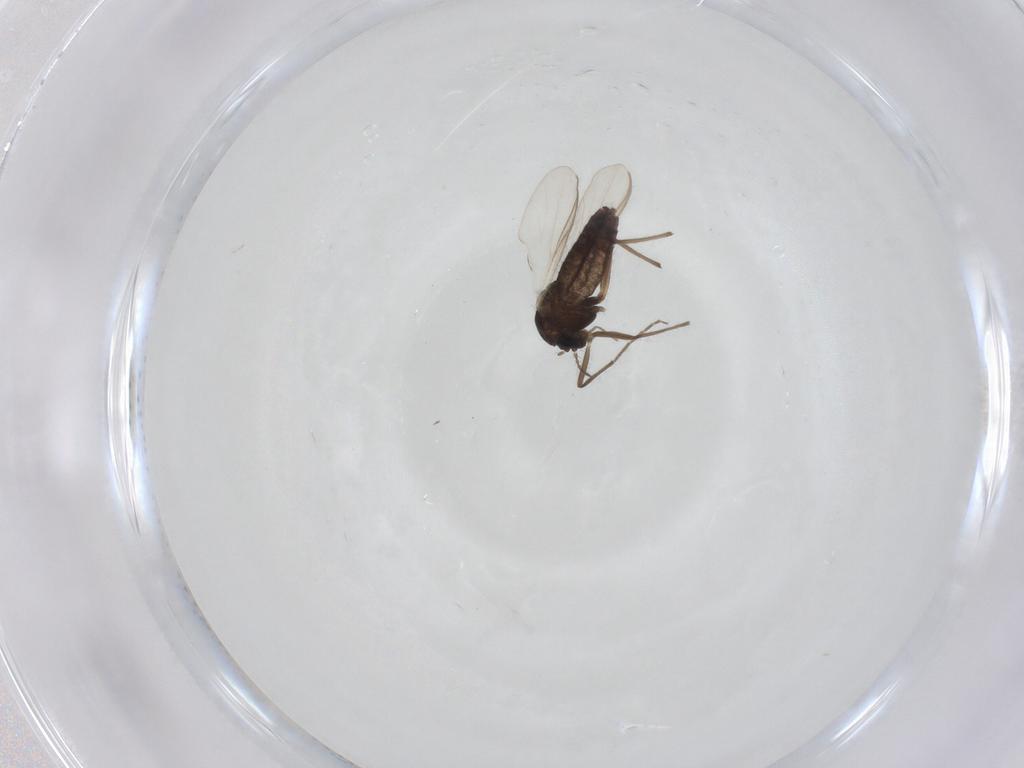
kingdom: Animalia
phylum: Arthropoda
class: Insecta
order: Diptera
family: Chironomidae
